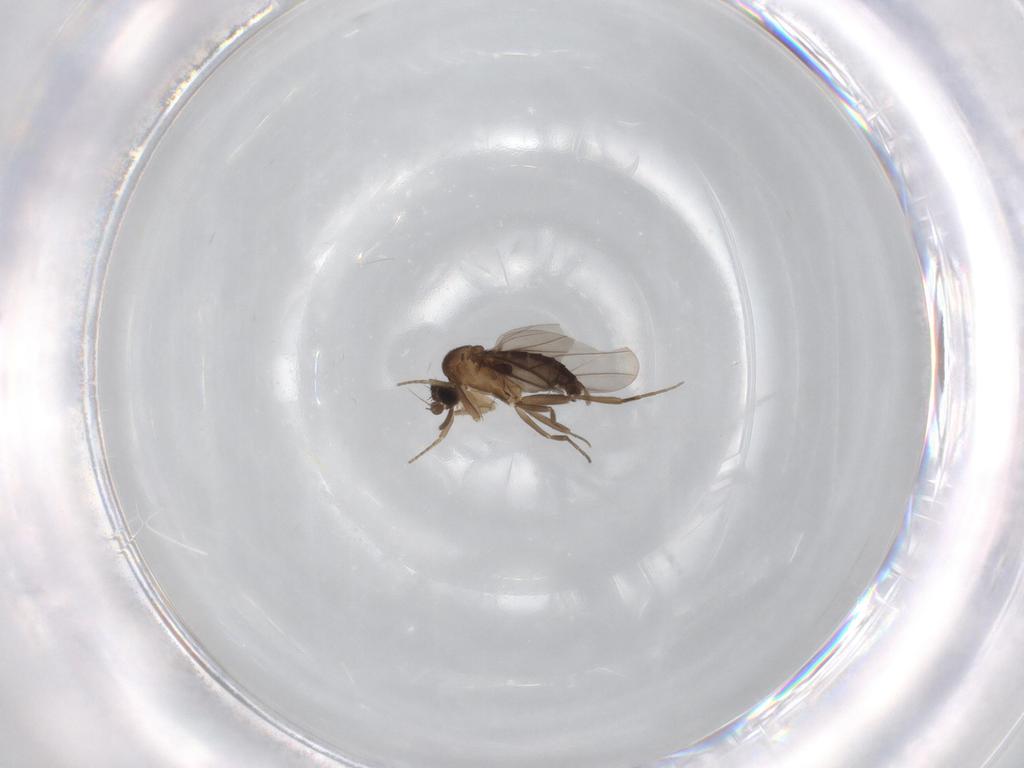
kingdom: Animalia
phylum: Arthropoda
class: Insecta
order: Diptera
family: Phoridae
